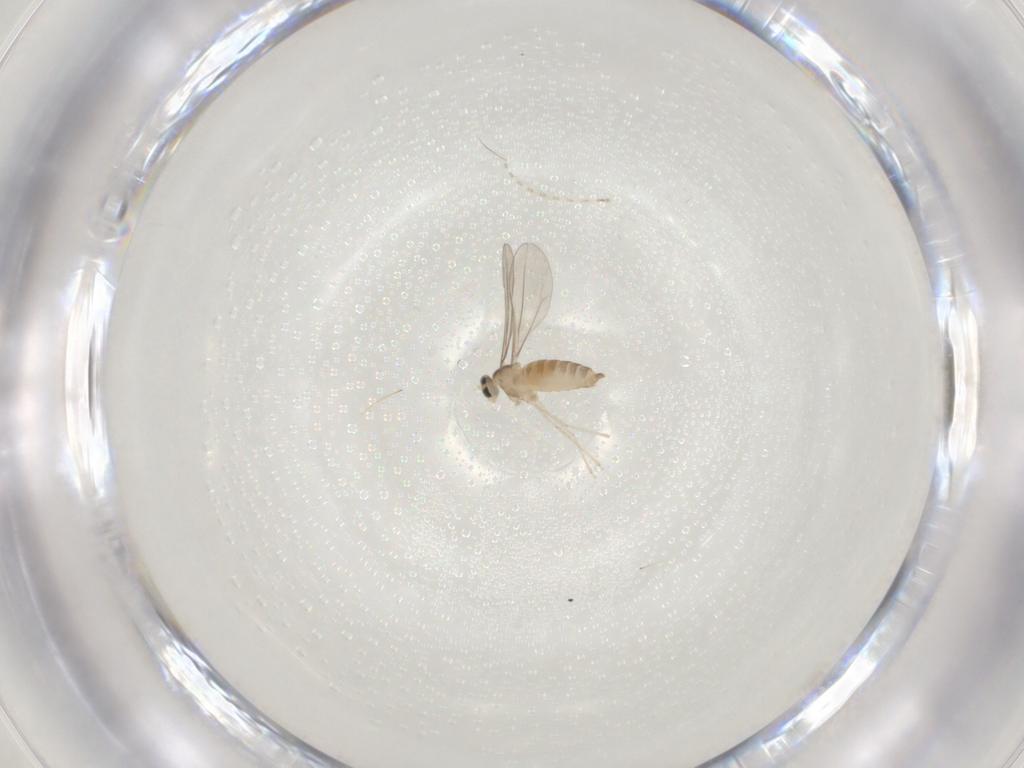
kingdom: Animalia
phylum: Arthropoda
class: Insecta
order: Diptera
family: Cecidomyiidae
